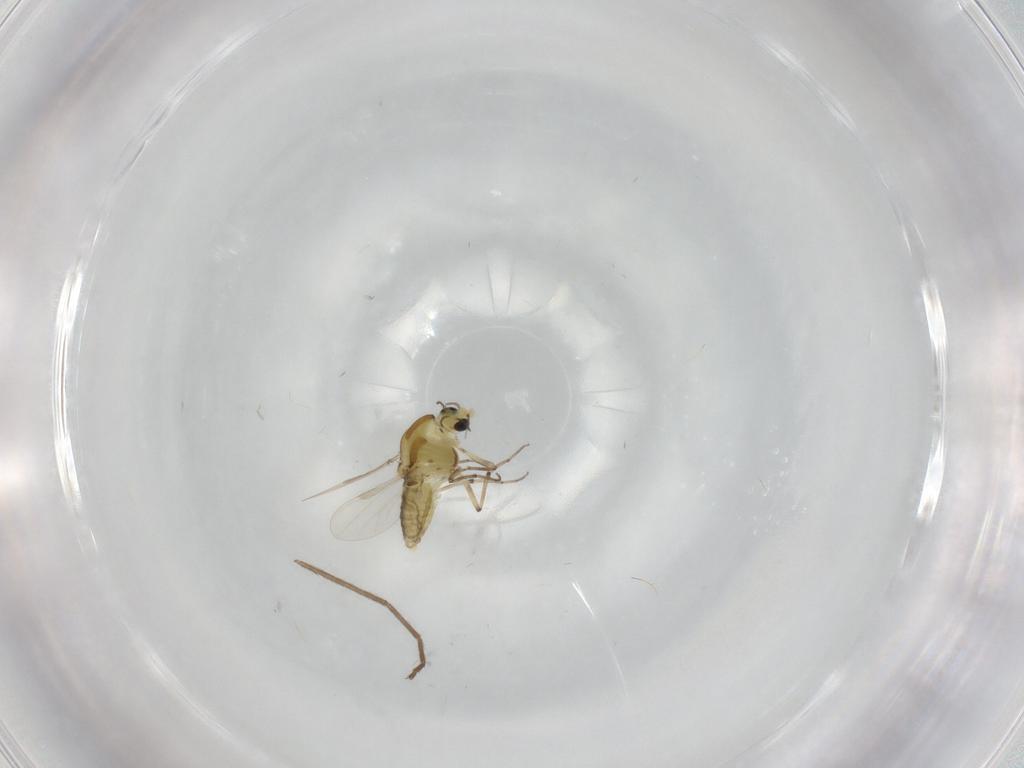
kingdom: Animalia
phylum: Arthropoda
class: Insecta
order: Diptera
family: Chironomidae
